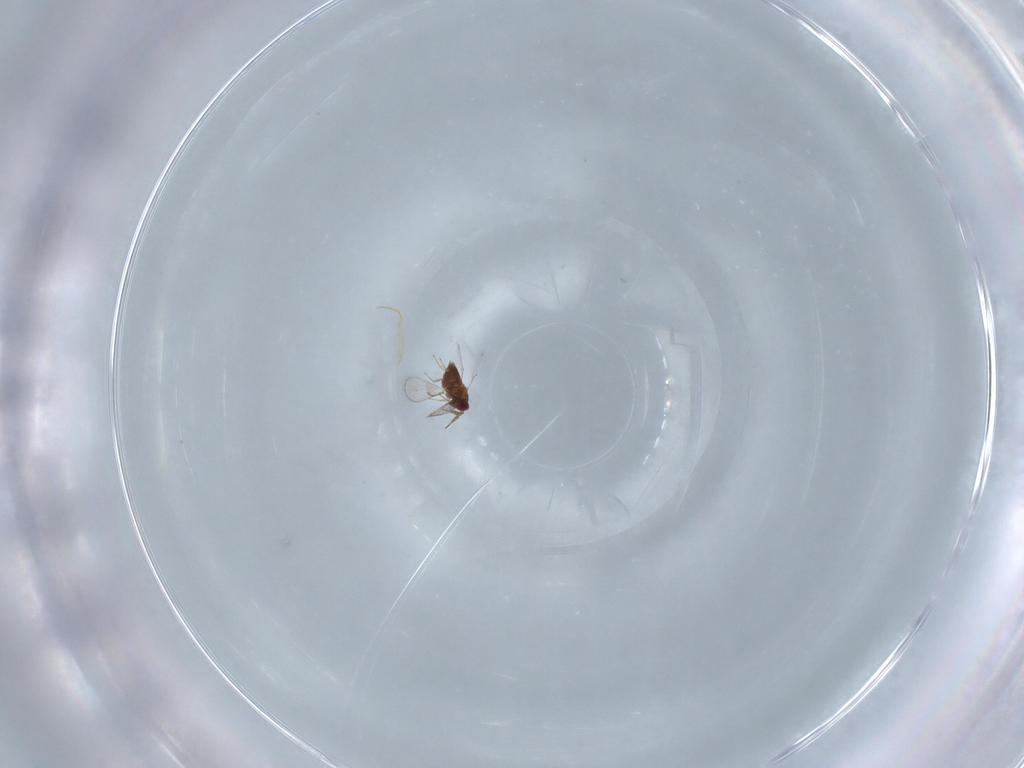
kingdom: Animalia
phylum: Arthropoda
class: Insecta
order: Hymenoptera
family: Trichogrammatidae
